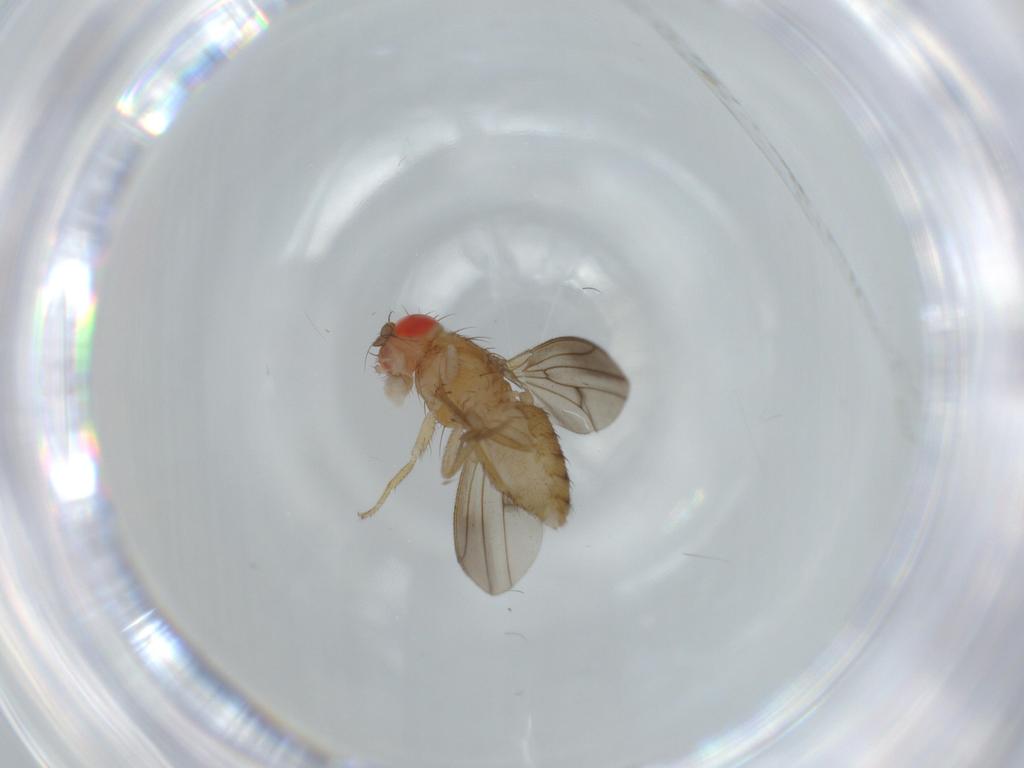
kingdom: Animalia
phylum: Arthropoda
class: Insecta
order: Diptera
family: Drosophilidae
